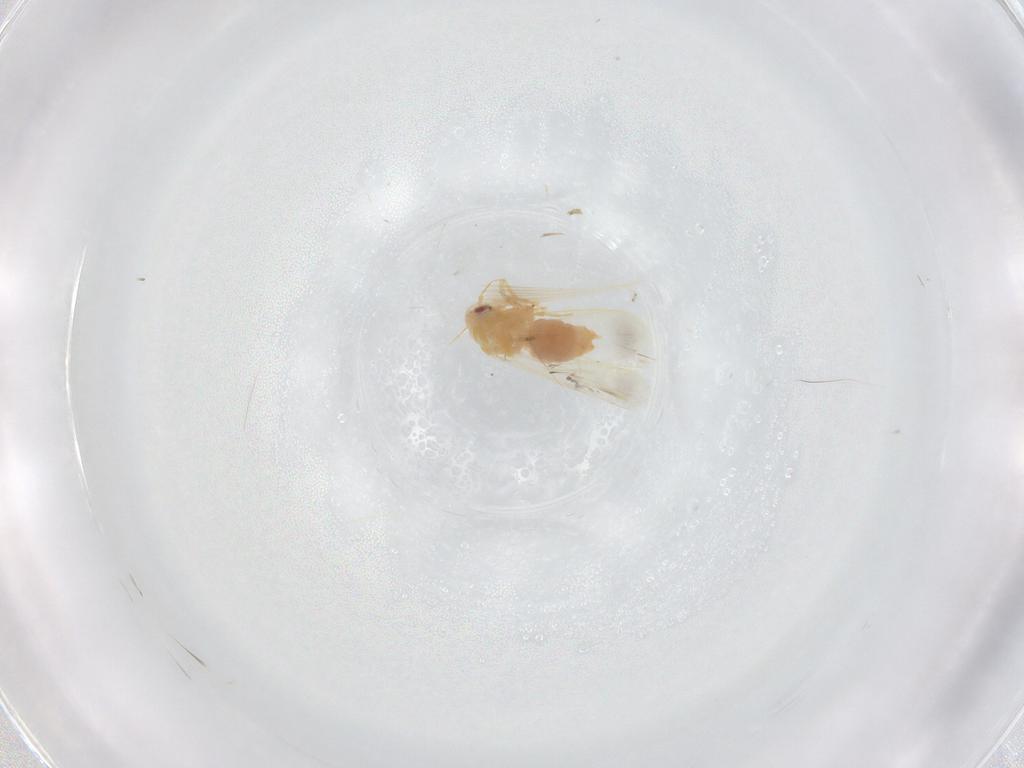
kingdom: Animalia
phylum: Arthropoda
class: Insecta
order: Hemiptera
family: Aleyrodidae
